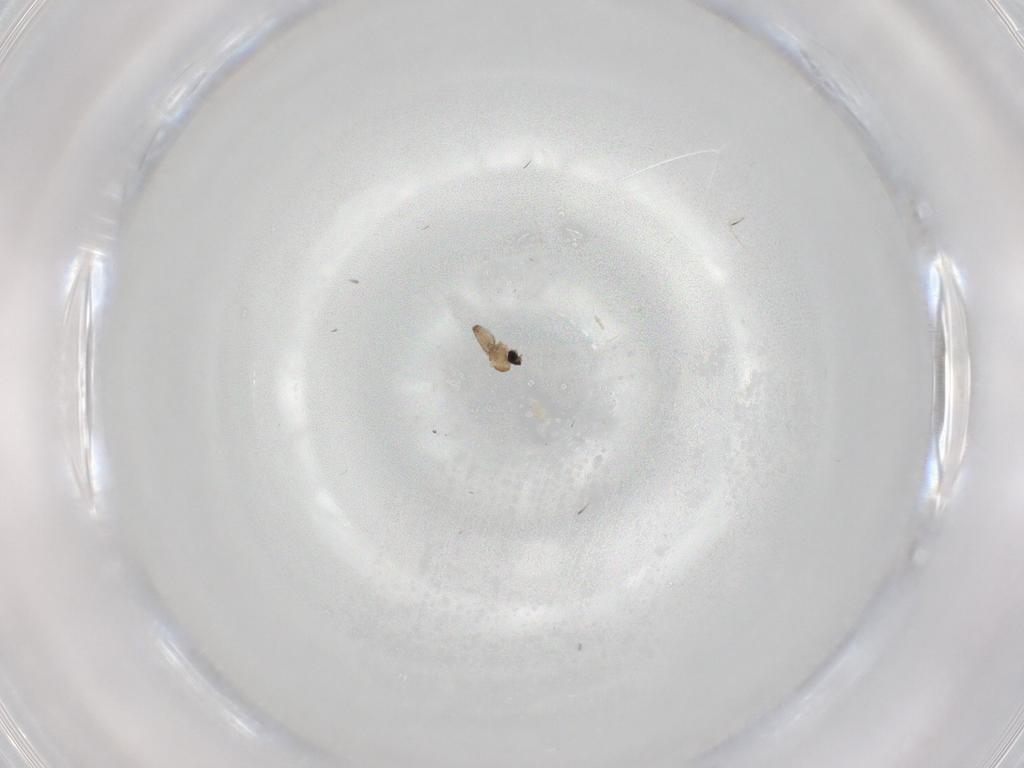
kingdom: Animalia
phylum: Arthropoda
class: Insecta
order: Diptera
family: Cecidomyiidae
